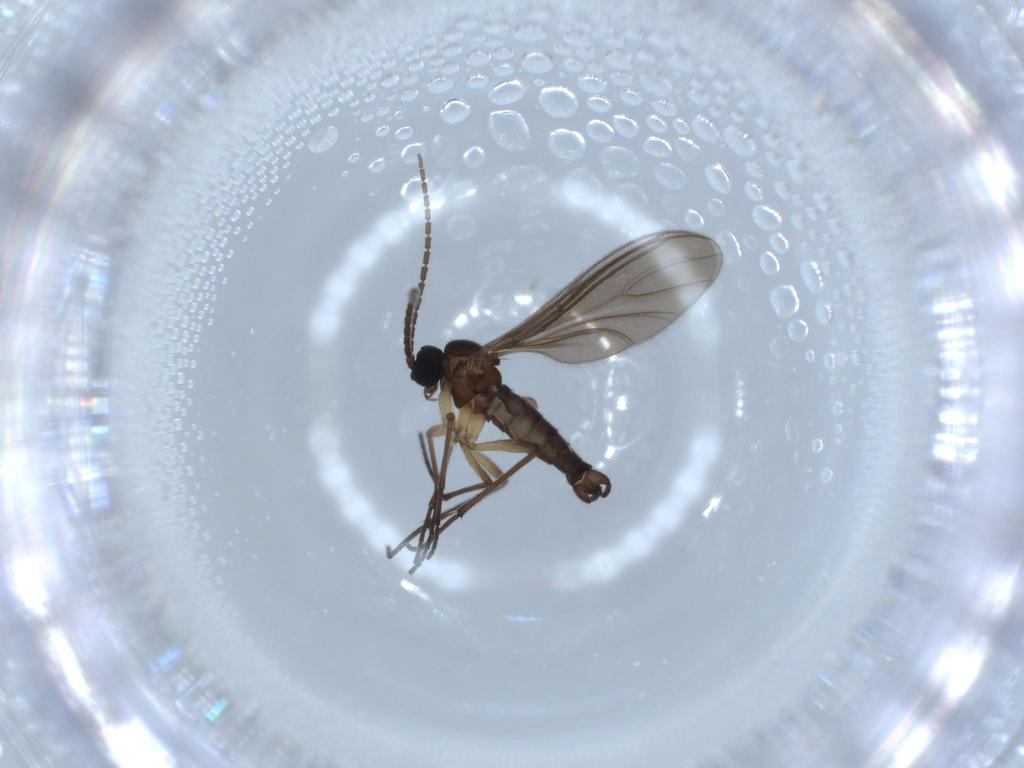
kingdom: Animalia
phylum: Arthropoda
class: Insecta
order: Diptera
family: Sciaridae
